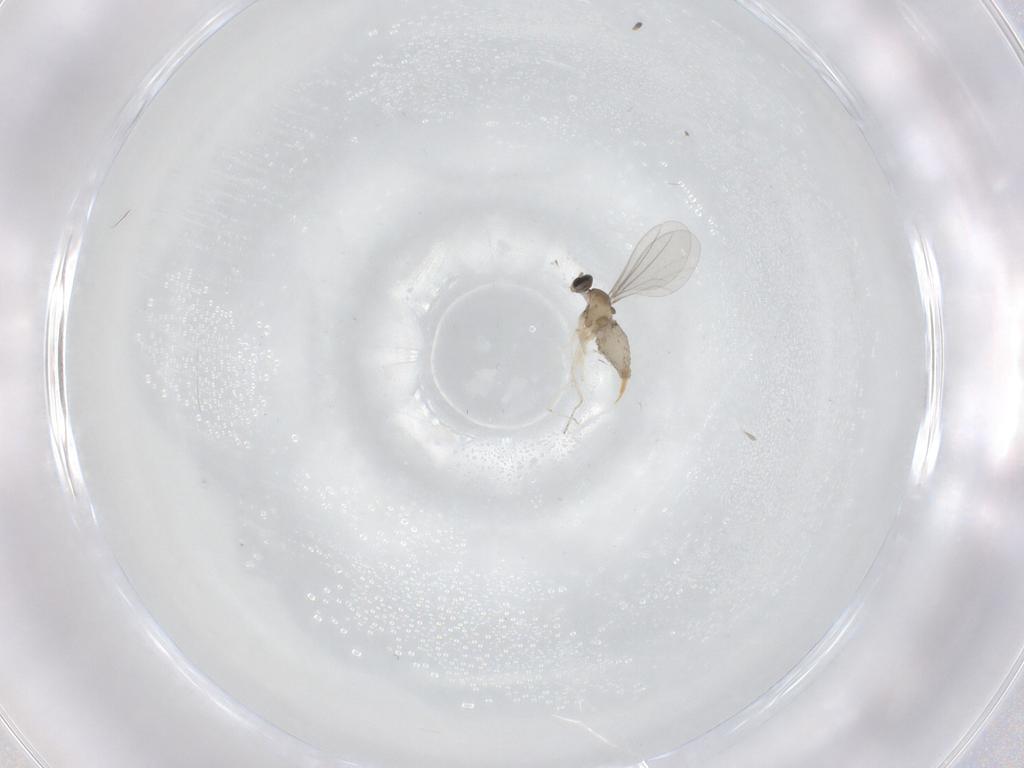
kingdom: Animalia
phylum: Arthropoda
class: Insecta
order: Diptera
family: Cecidomyiidae
